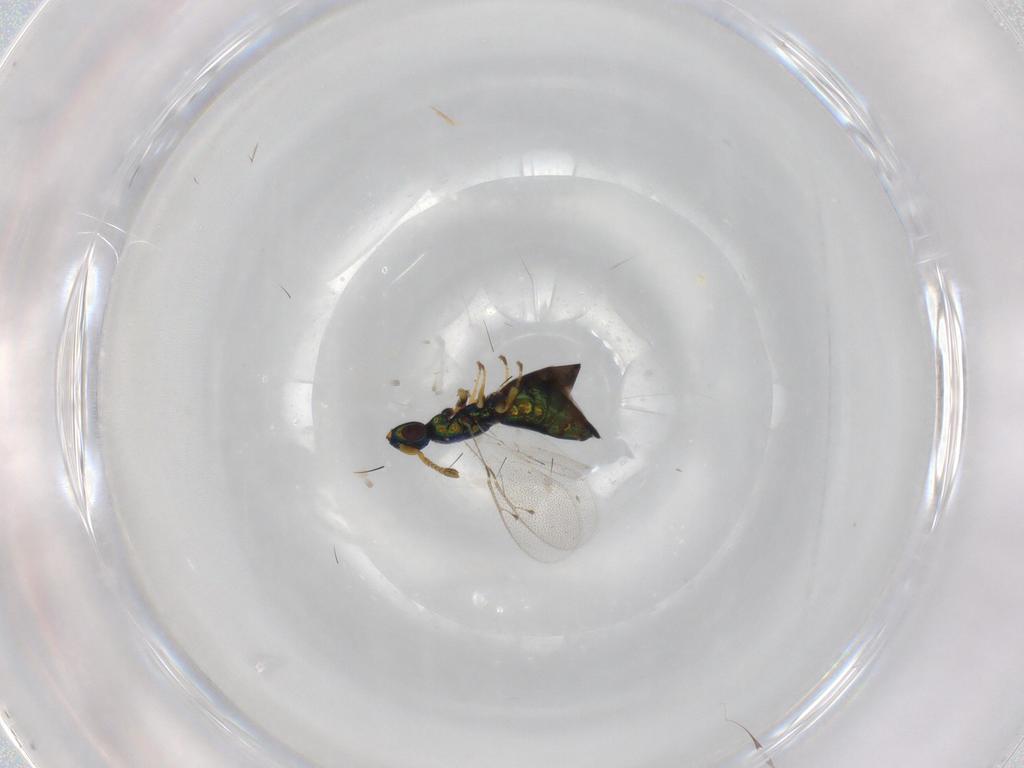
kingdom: Animalia
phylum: Arthropoda
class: Insecta
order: Hymenoptera
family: Pteromalidae
